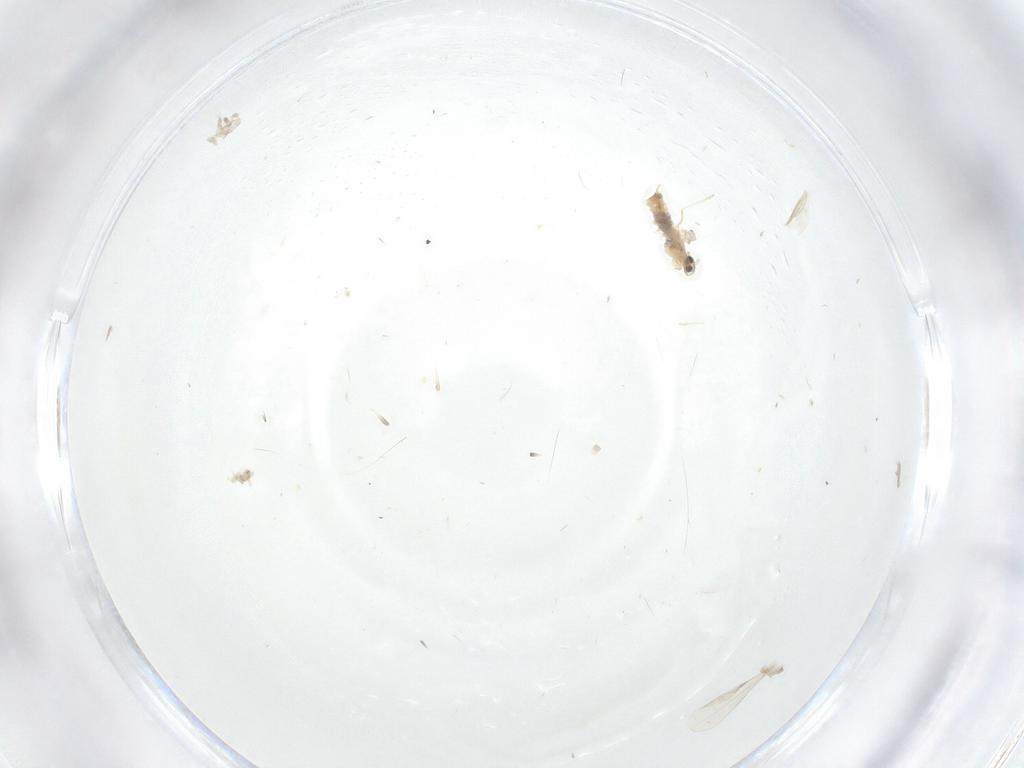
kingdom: Animalia
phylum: Arthropoda
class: Insecta
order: Diptera
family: Cecidomyiidae
